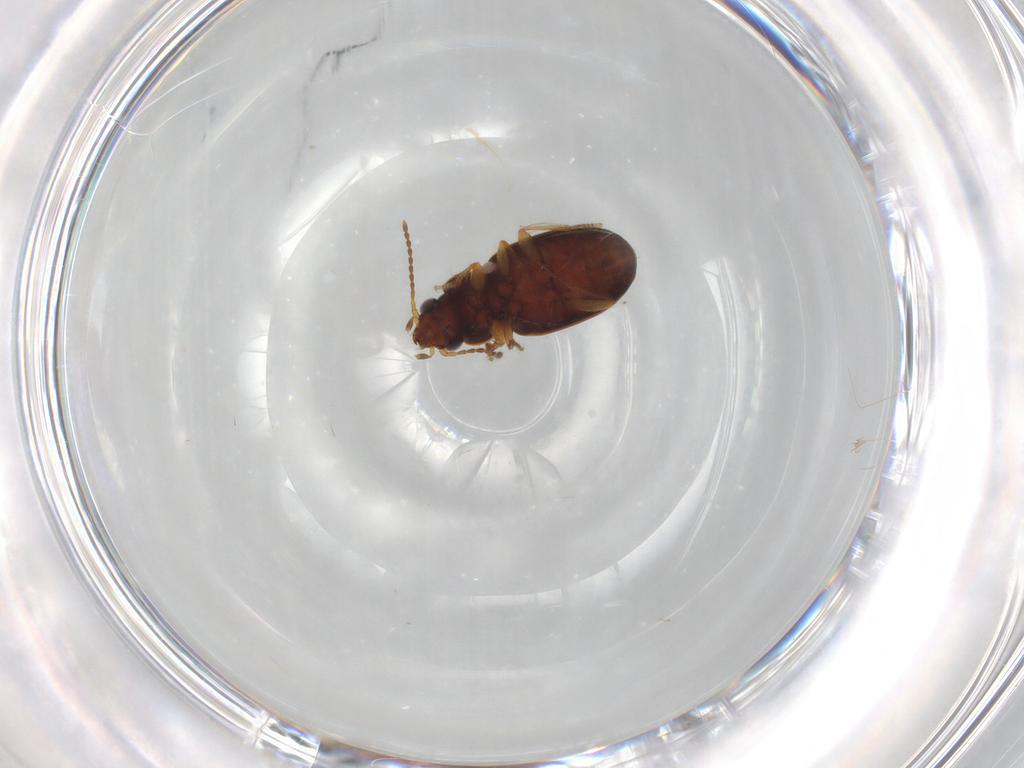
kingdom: Animalia
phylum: Arthropoda
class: Insecta
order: Coleoptera
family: Carabidae
